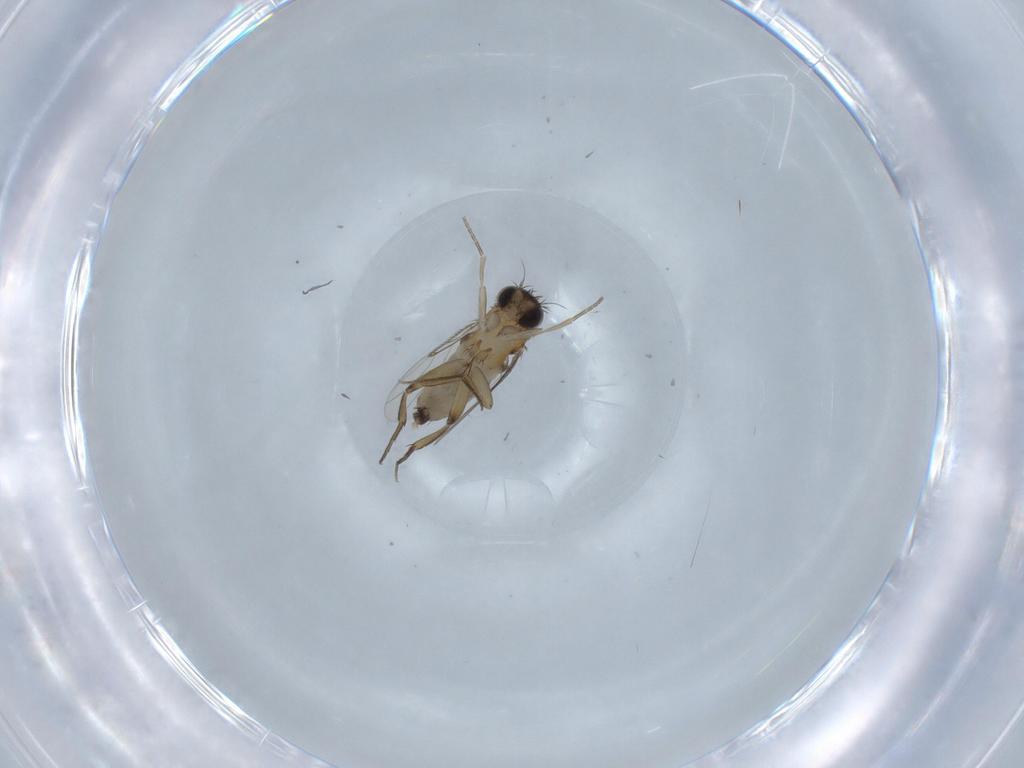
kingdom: Animalia
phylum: Arthropoda
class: Insecta
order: Diptera
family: Phoridae
